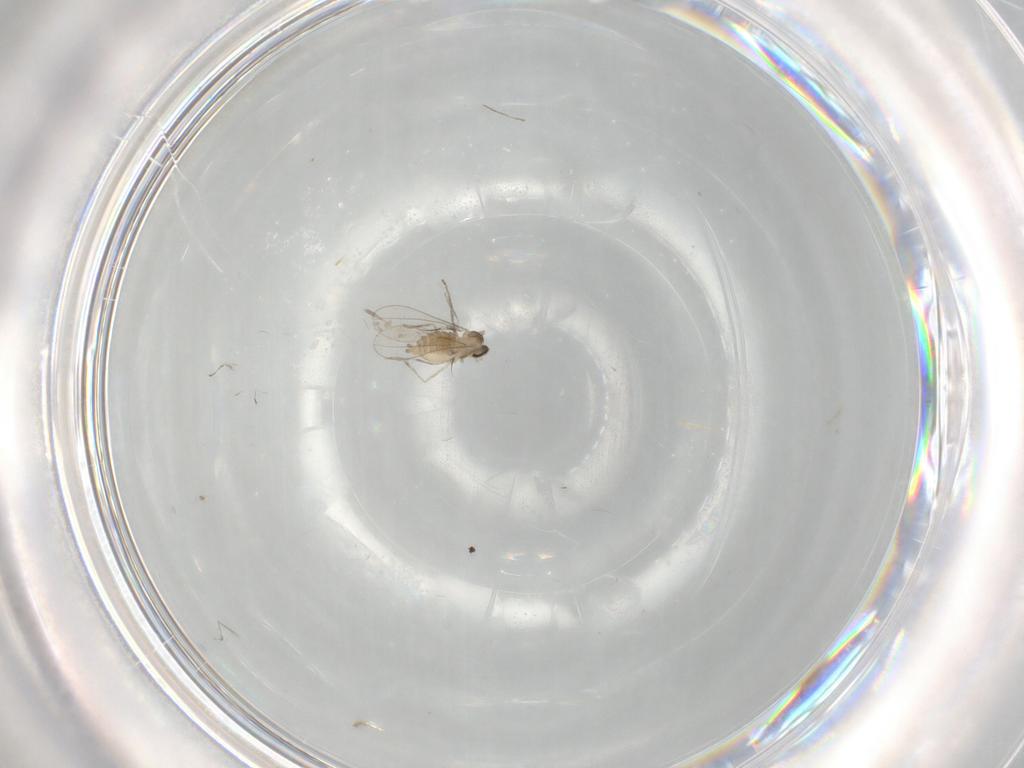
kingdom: Animalia
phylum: Arthropoda
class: Insecta
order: Diptera
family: Cecidomyiidae
